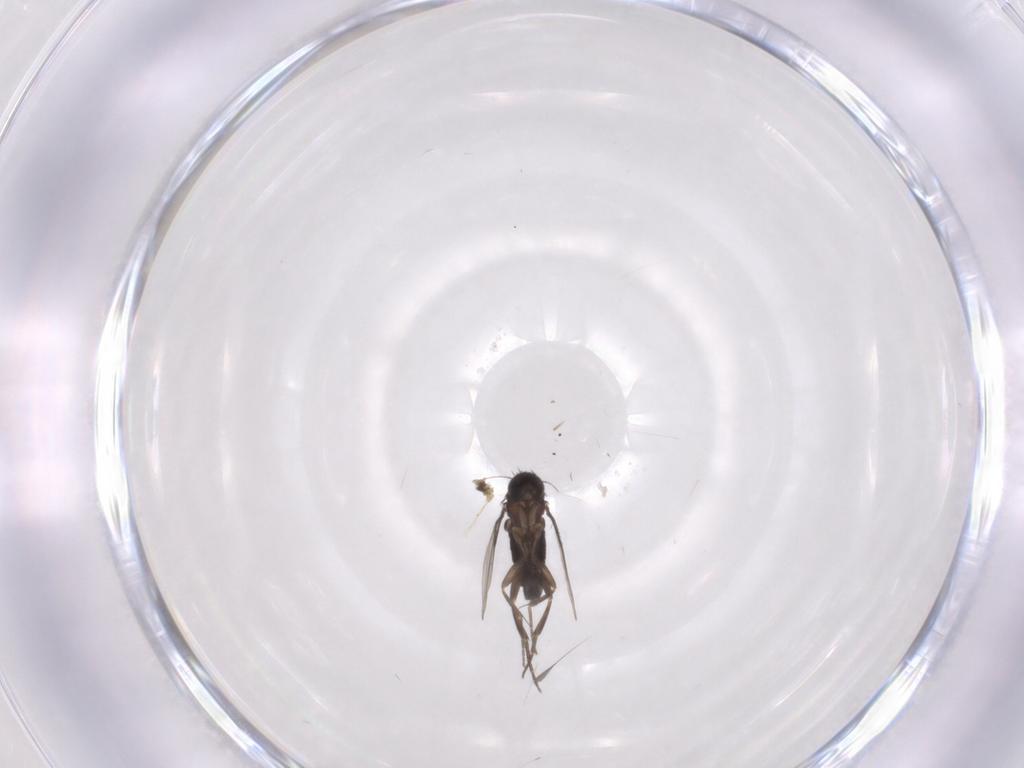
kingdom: Animalia
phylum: Arthropoda
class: Insecta
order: Diptera
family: Phoridae
